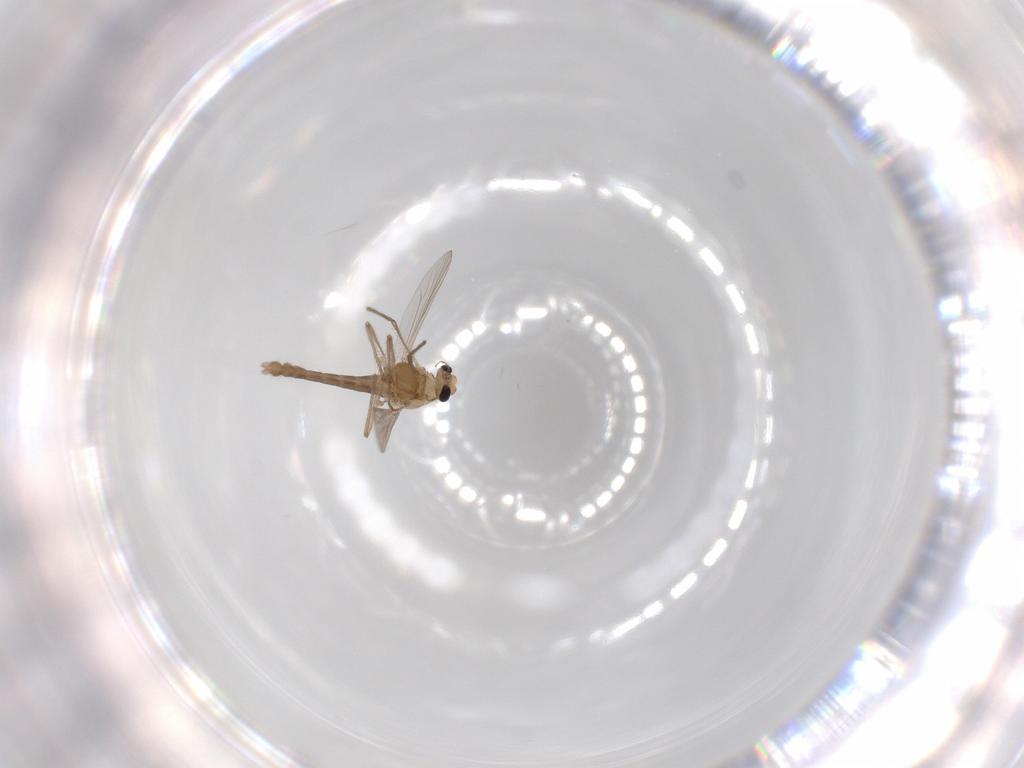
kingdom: Animalia
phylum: Arthropoda
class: Insecta
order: Diptera
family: Chironomidae
